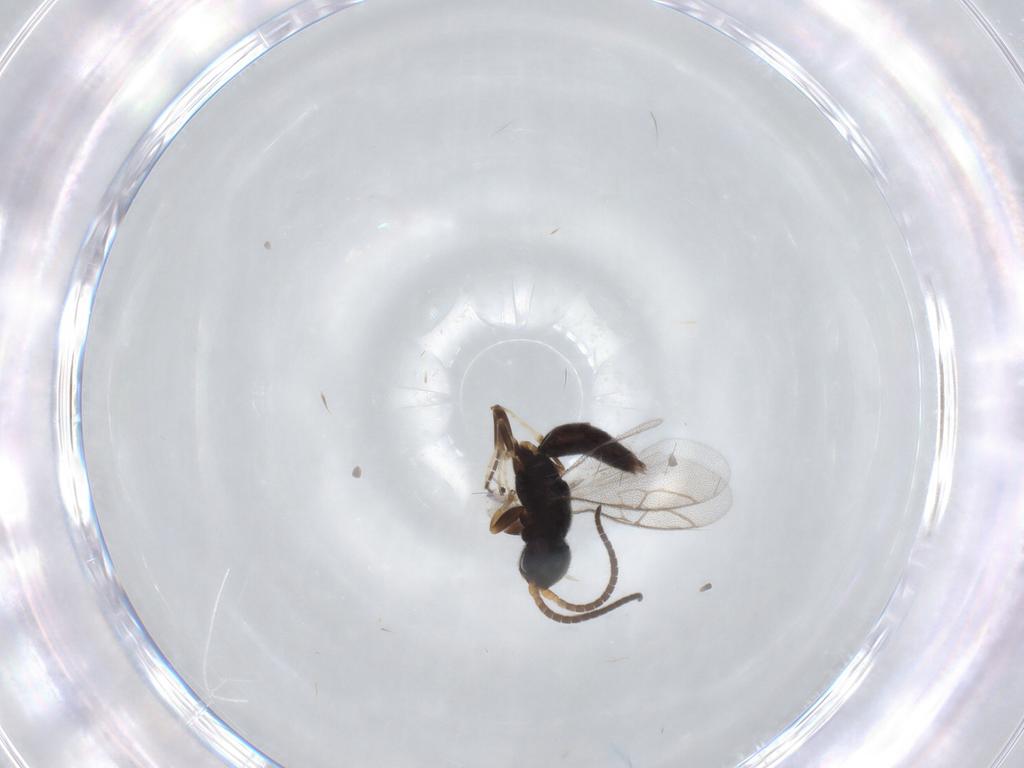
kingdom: Animalia
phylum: Arthropoda
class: Insecta
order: Hymenoptera
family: Sclerogibbidae
